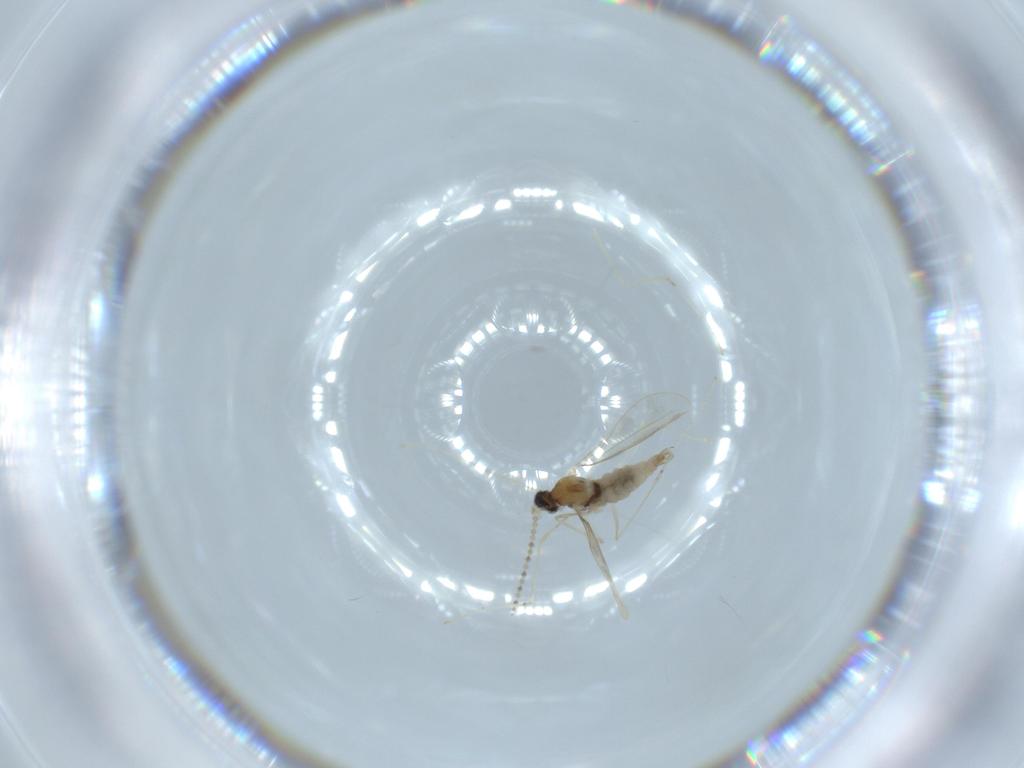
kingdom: Animalia
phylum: Arthropoda
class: Insecta
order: Diptera
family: Cecidomyiidae
